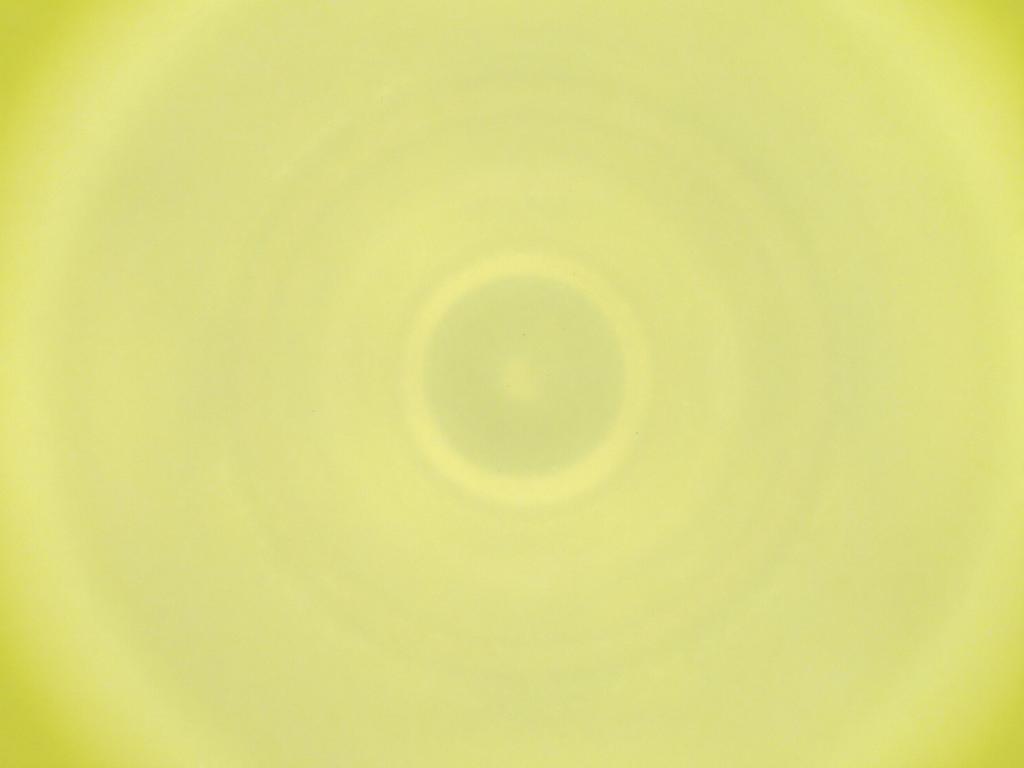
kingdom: Animalia
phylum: Arthropoda
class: Insecta
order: Diptera
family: Cecidomyiidae
